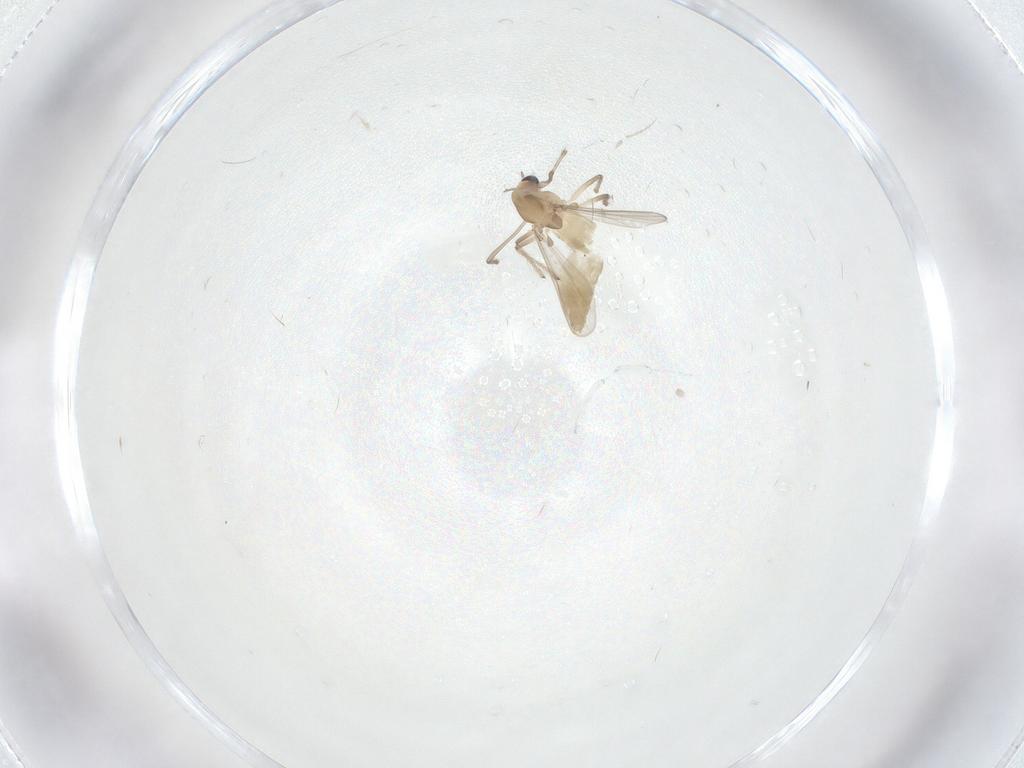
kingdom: Animalia
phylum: Arthropoda
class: Insecta
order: Diptera
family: Chironomidae
